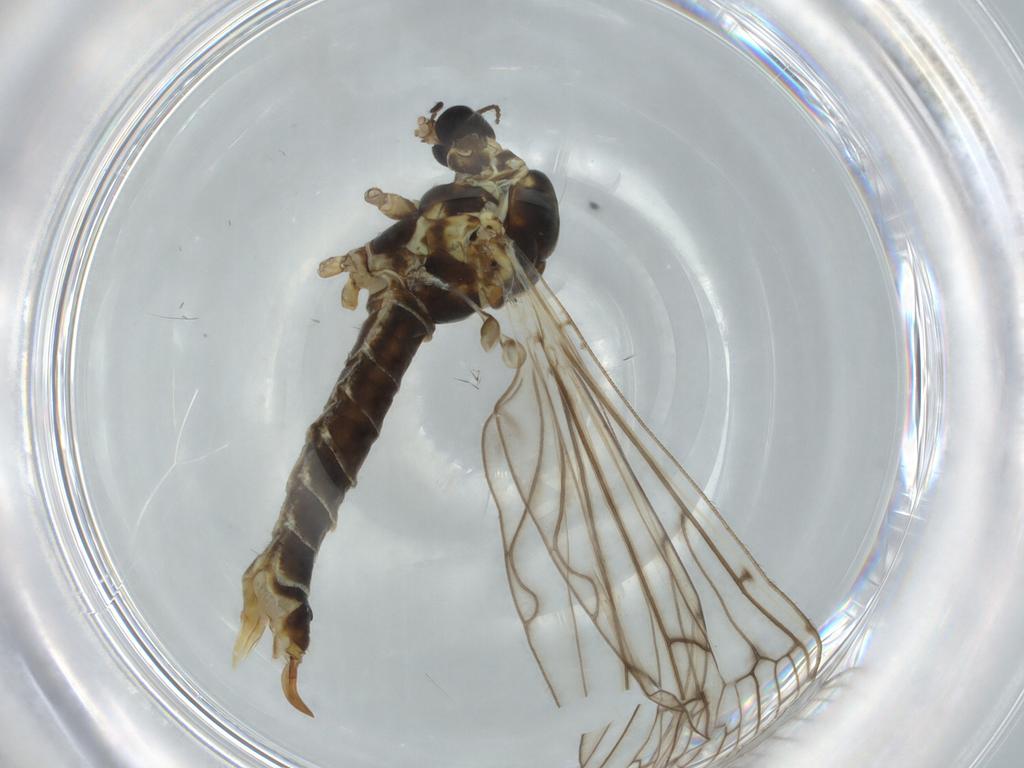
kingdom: Animalia
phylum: Arthropoda
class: Insecta
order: Diptera
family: Limoniidae
